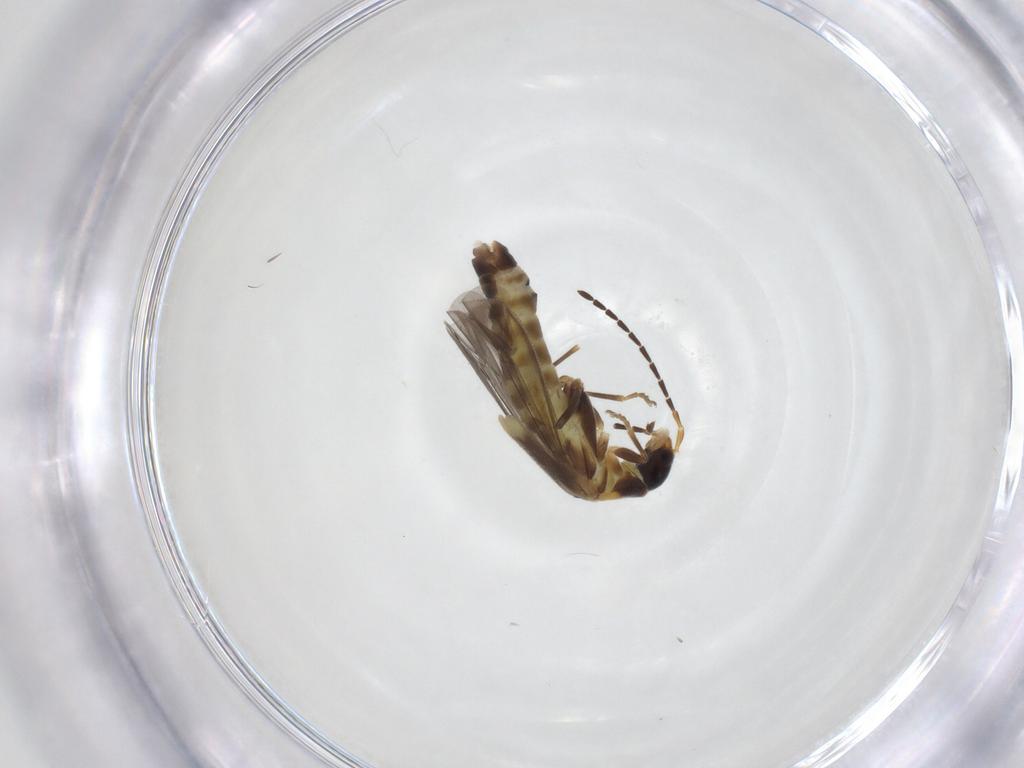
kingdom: Animalia
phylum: Arthropoda
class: Insecta
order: Coleoptera
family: Cantharidae
